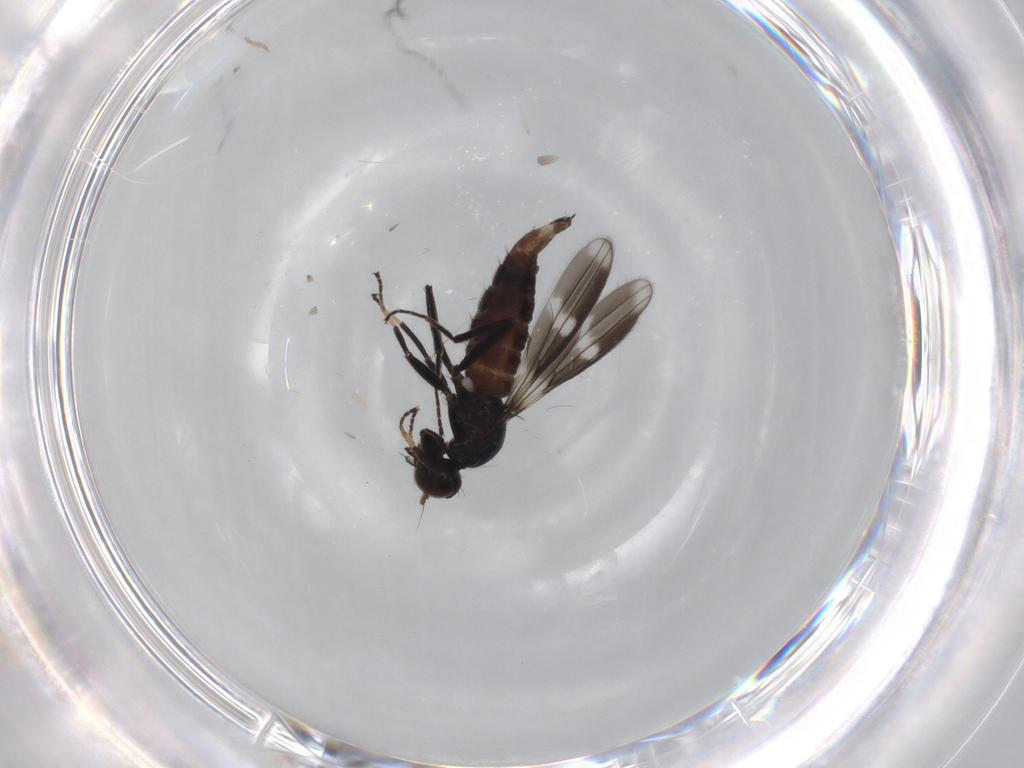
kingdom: Animalia
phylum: Arthropoda
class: Insecta
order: Diptera
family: Hybotidae
